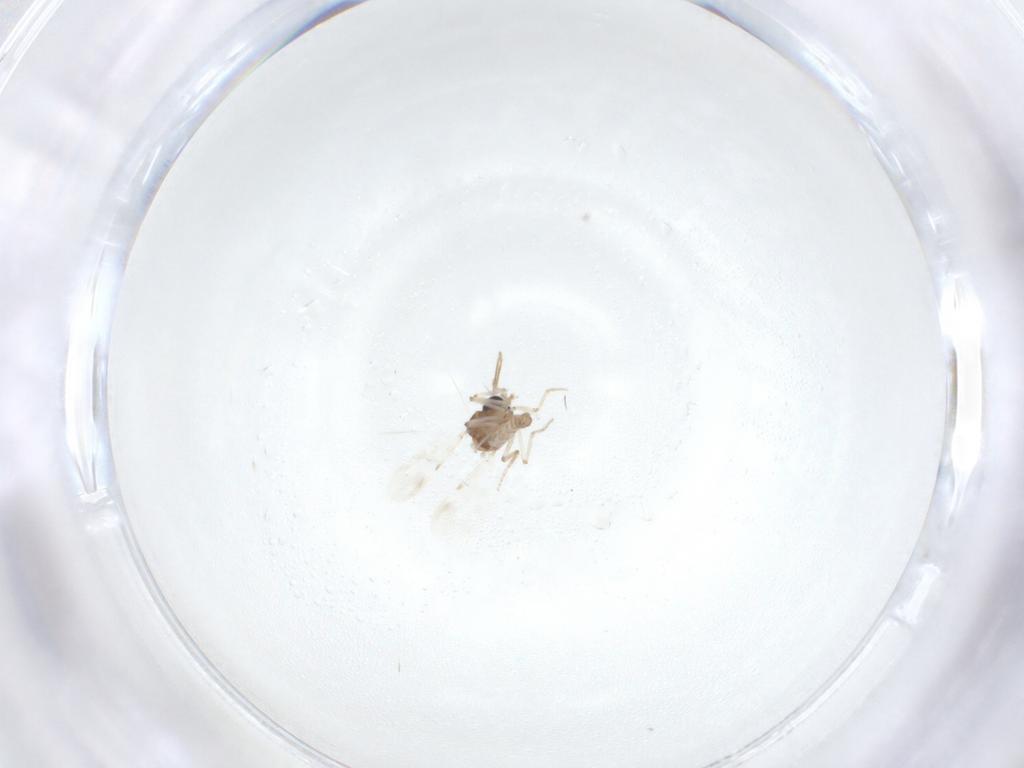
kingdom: Animalia
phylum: Arthropoda
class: Insecta
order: Diptera
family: Ceratopogonidae
